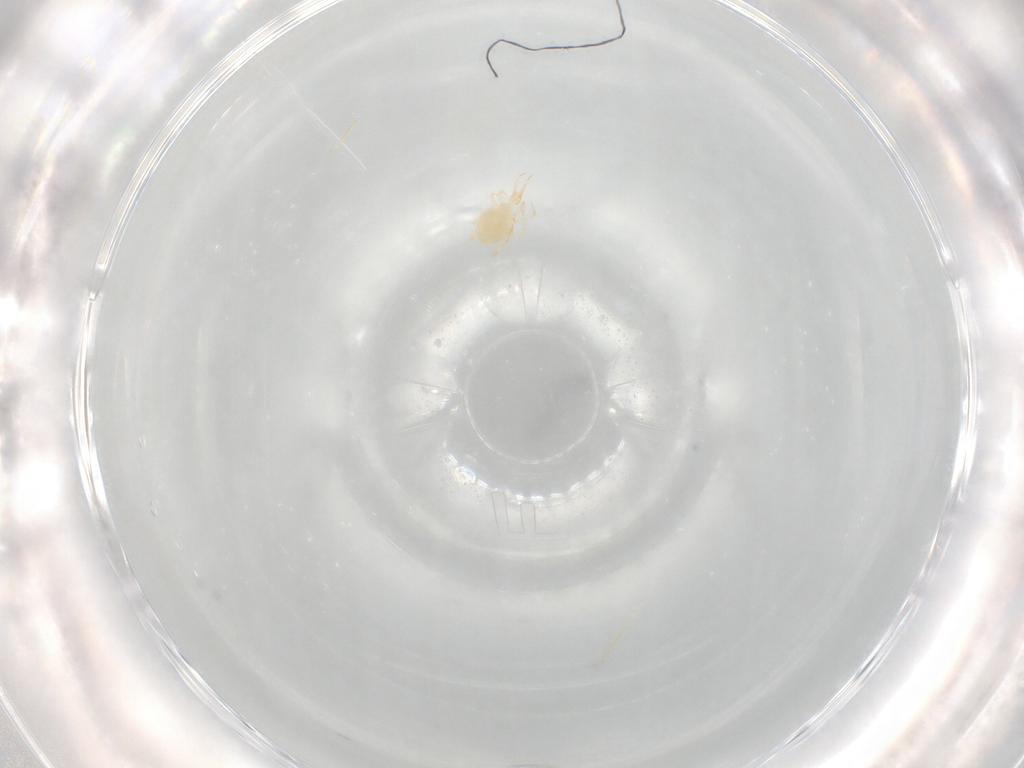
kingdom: Animalia
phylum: Arthropoda
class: Arachnida
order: Trombidiformes
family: Cunaxidae
